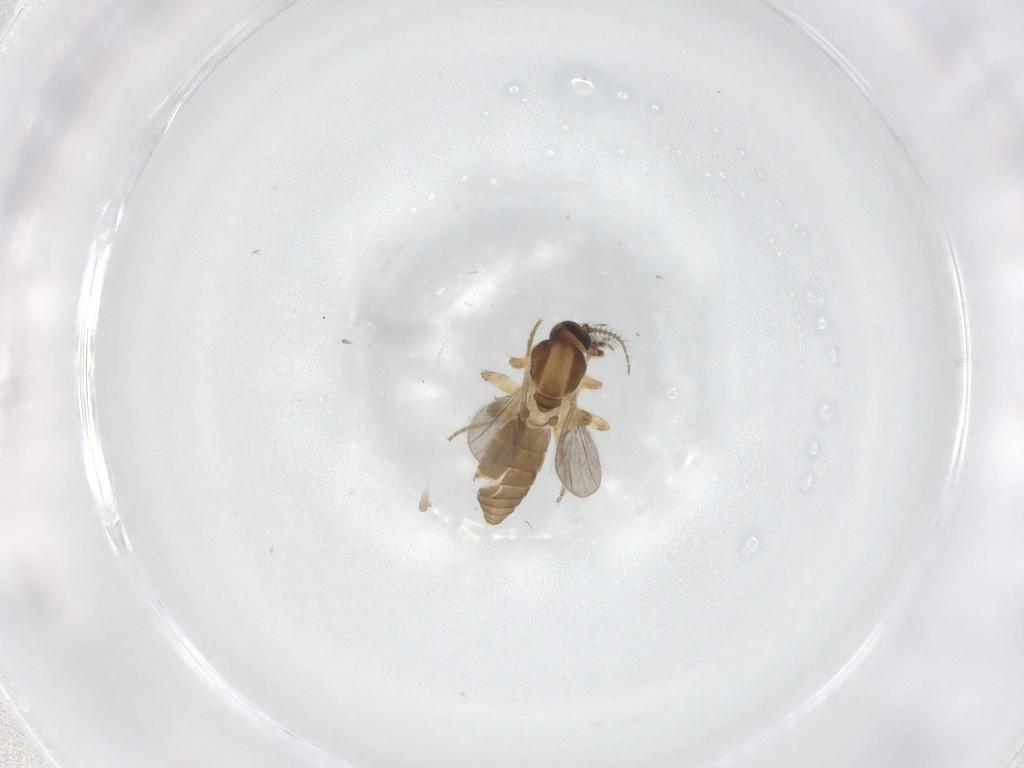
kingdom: Animalia
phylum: Arthropoda
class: Insecta
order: Diptera
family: Ceratopogonidae
